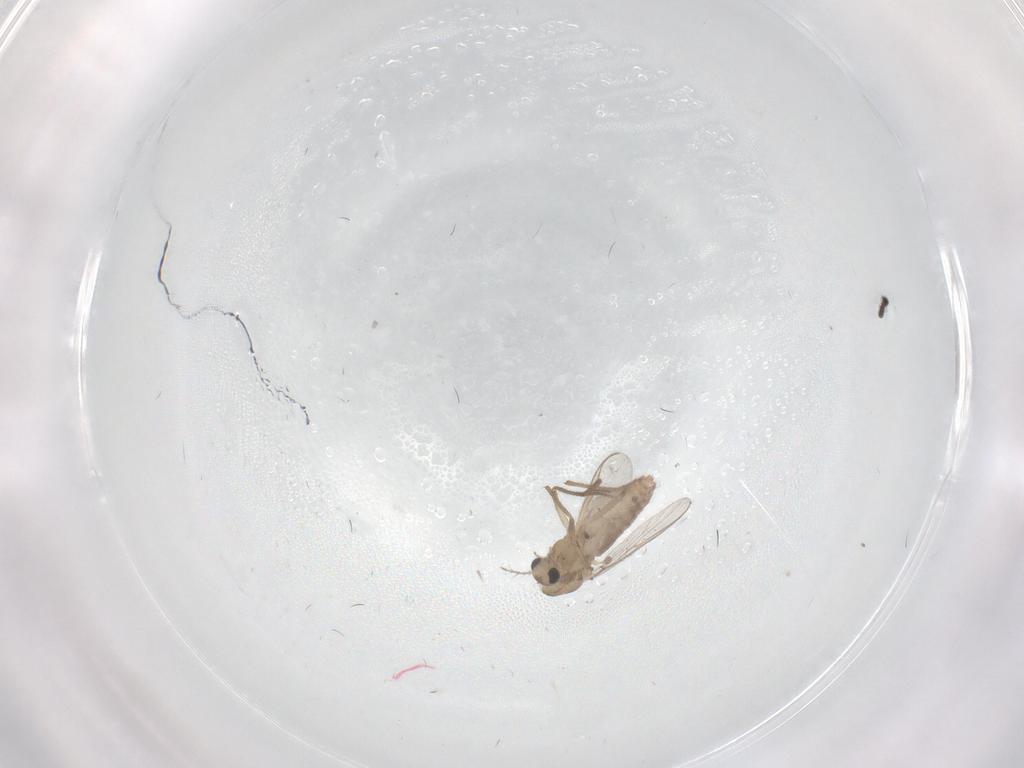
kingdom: Animalia
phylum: Arthropoda
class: Insecta
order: Diptera
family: Chironomidae
